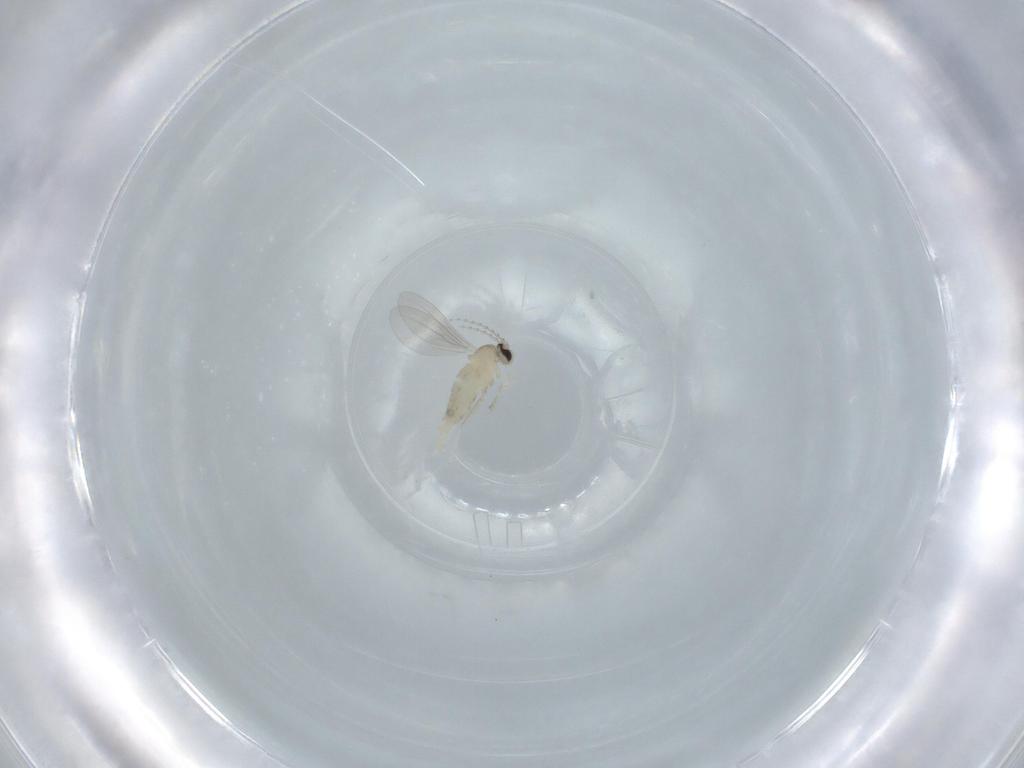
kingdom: Animalia
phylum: Arthropoda
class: Insecta
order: Diptera
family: Cecidomyiidae
